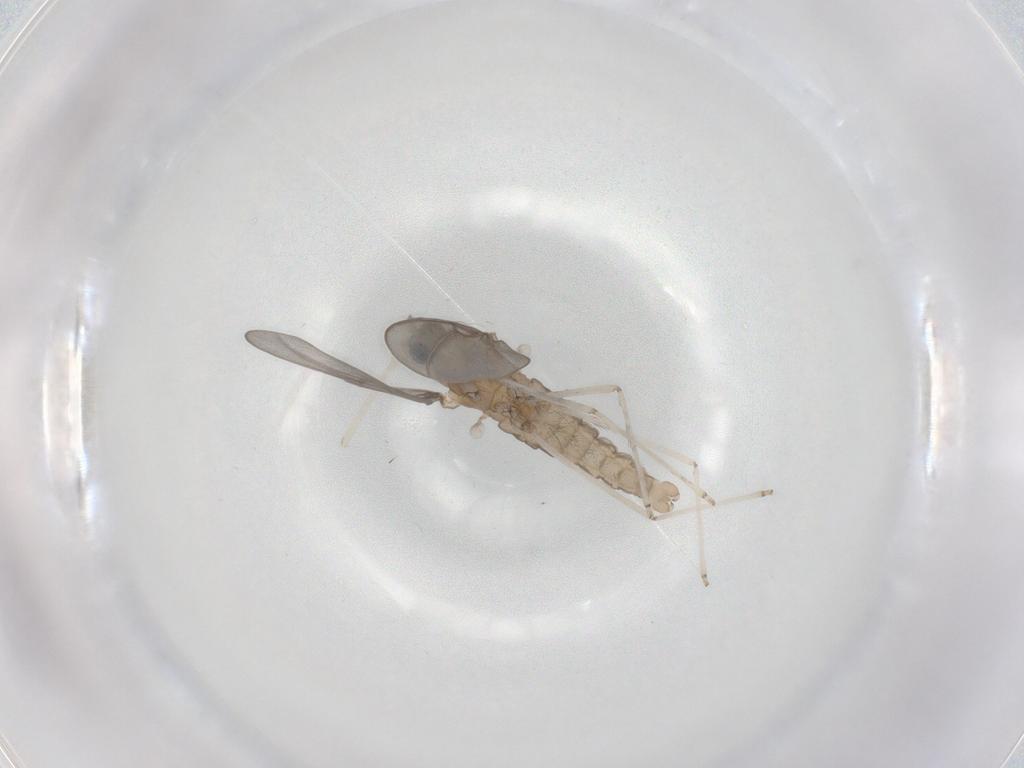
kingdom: Animalia
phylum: Arthropoda
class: Insecta
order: Diptera
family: Cecidomyiidae
